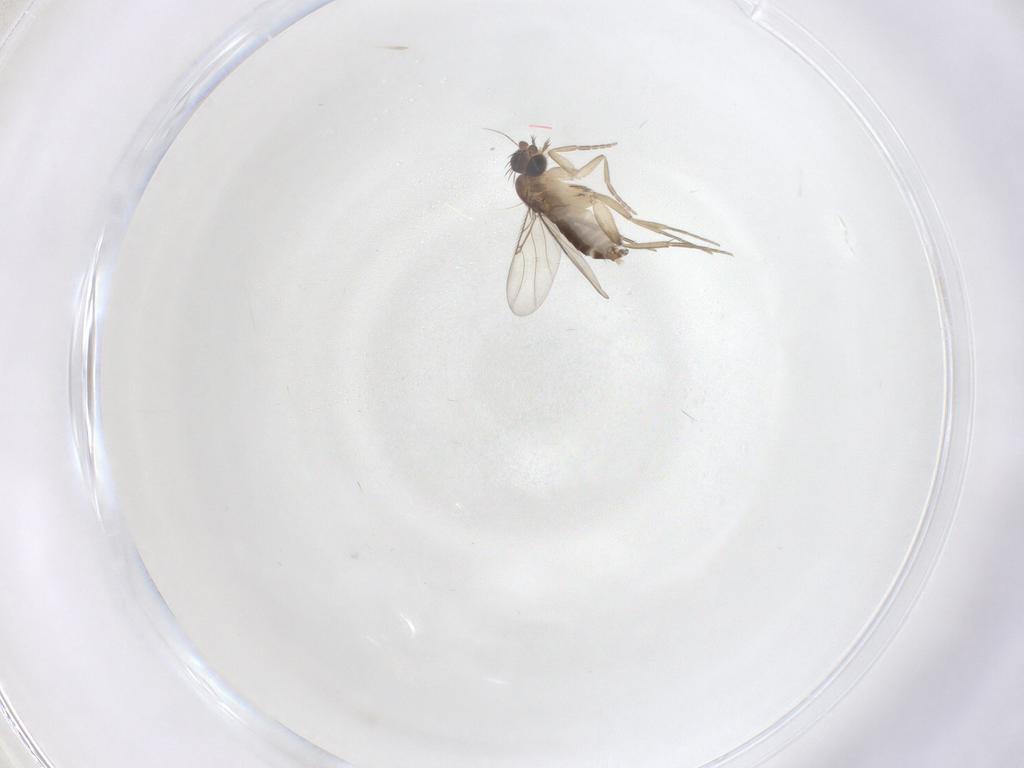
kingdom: Animalia
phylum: Arthropoda
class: Insecta
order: Diptera
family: Phoridae
